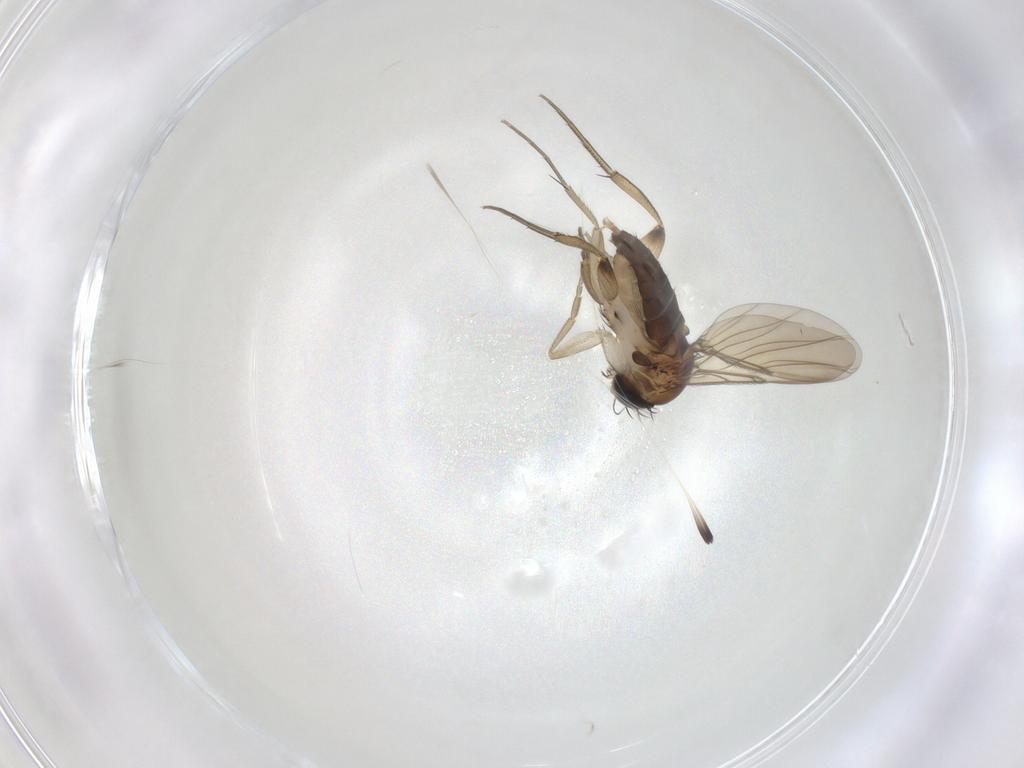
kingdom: Animalia
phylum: Arthropoda
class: Insecta
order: Diptera
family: Phoridae
